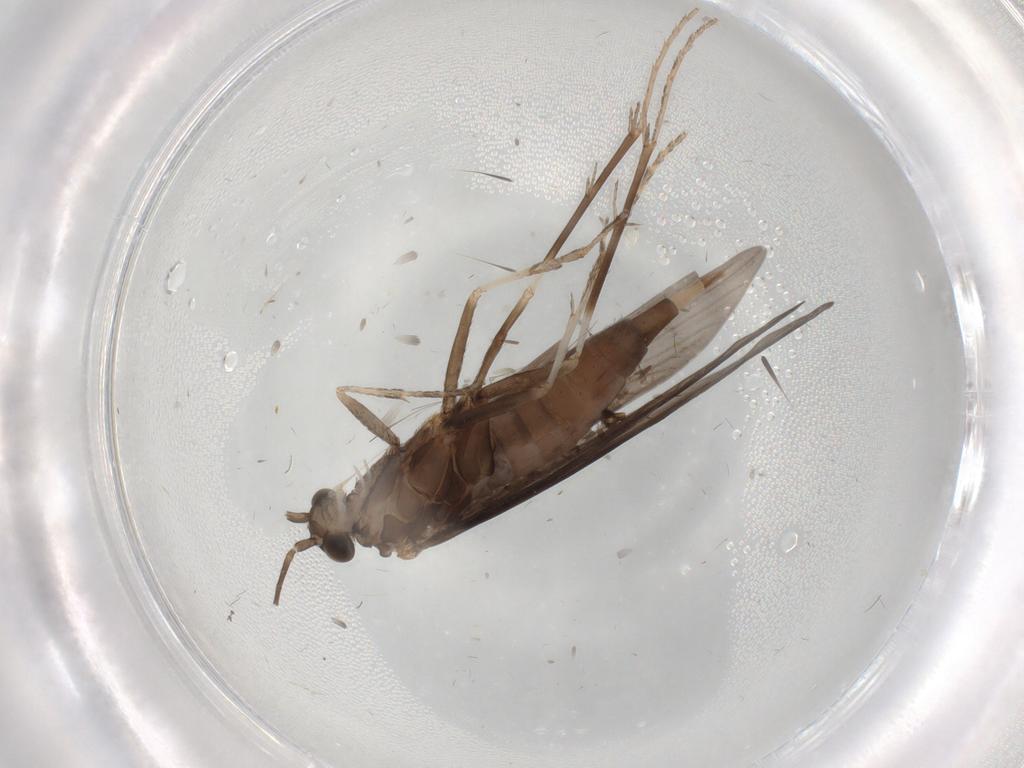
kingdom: Animalia
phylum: Arthropoda
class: Insecta
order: Trichoptera
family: Xiphocentronidae
